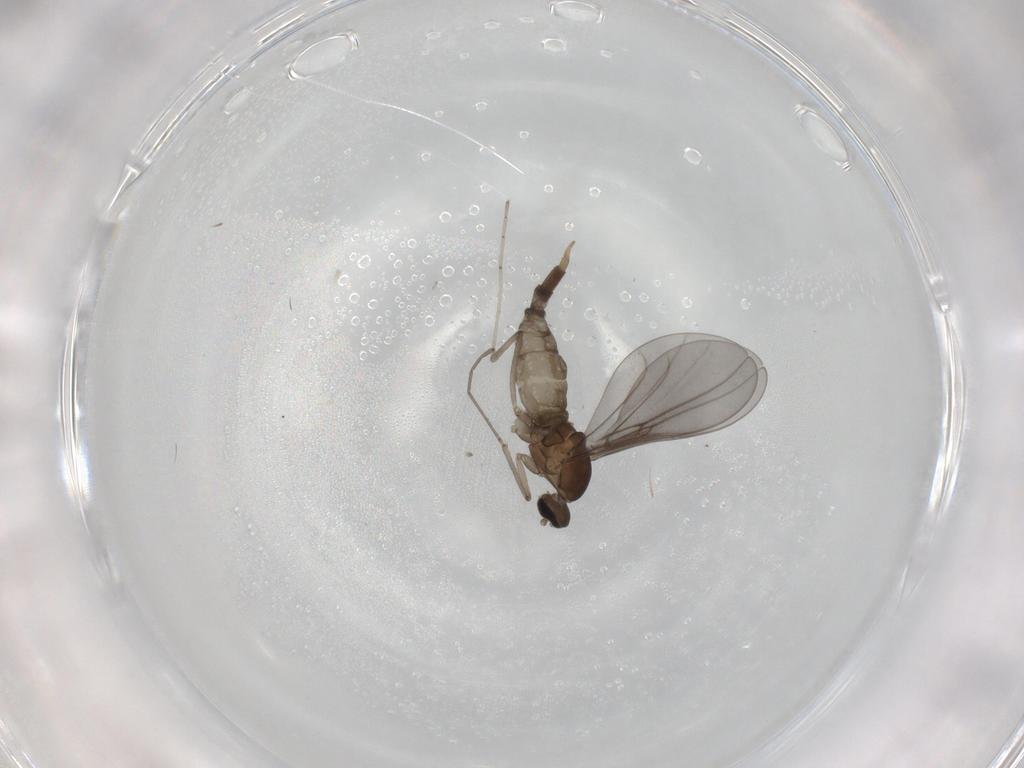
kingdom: Animalia
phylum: Arthropoda
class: Insecta
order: Diptera
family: Cecidomyiidae
